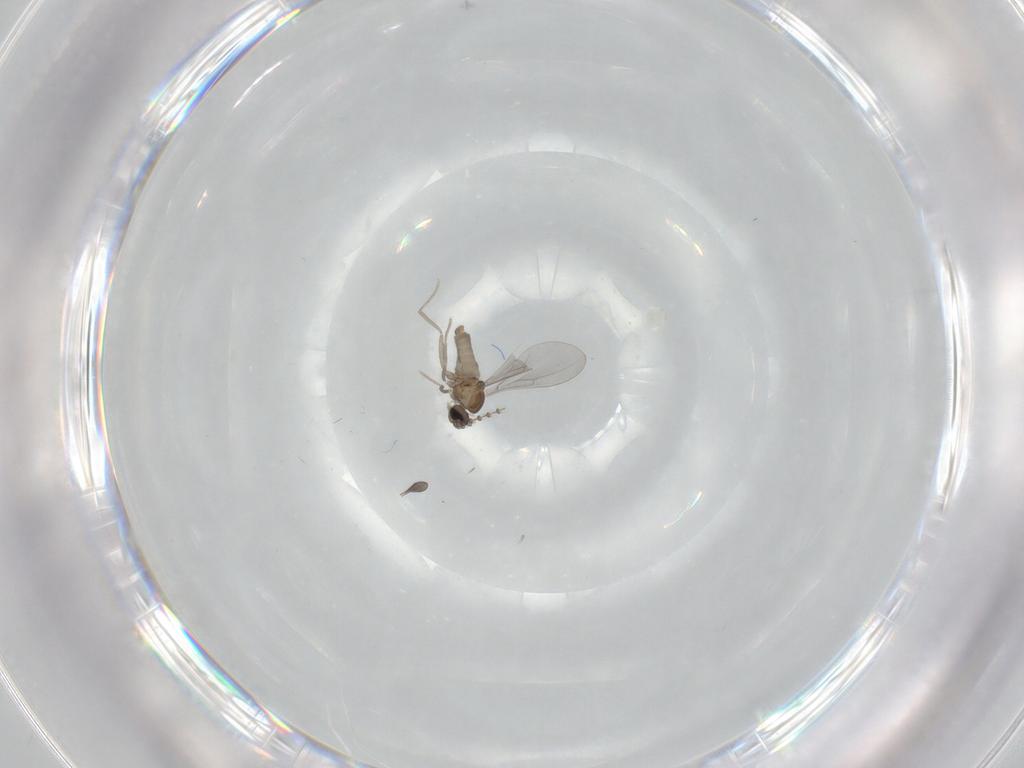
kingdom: Animalia
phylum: Arthropoda
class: Insecta
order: Diptera
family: Cecidomyiidae
